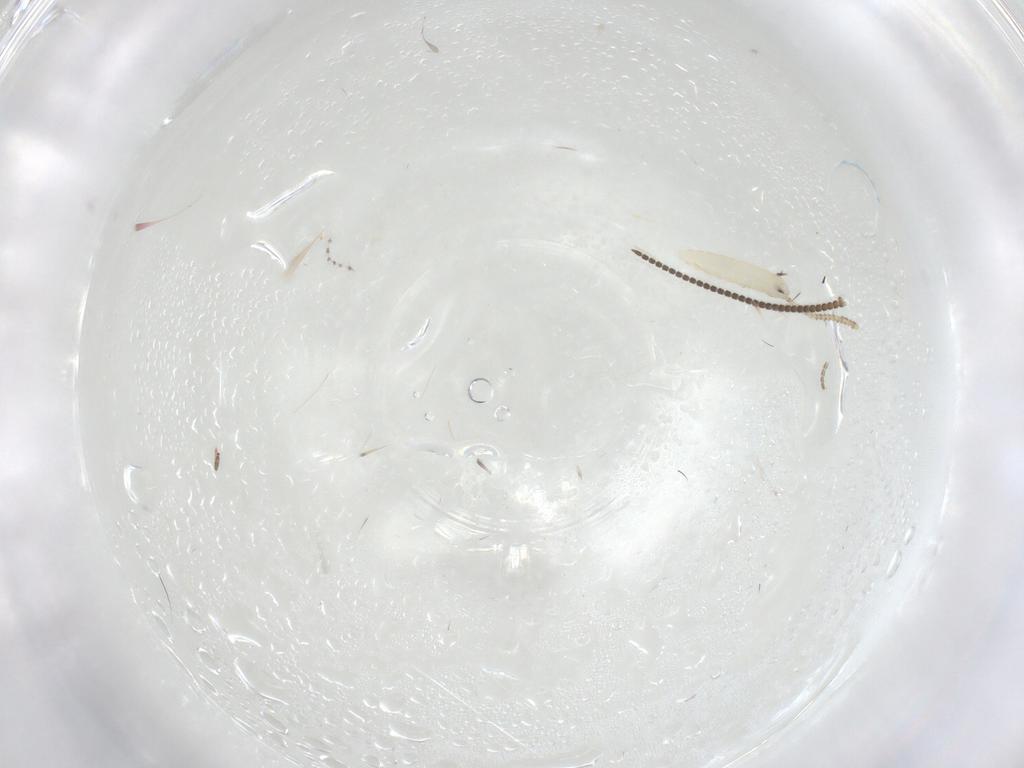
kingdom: Animalia
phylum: Arthropoda
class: Insecta
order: Lepidoptera
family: Tineidae
